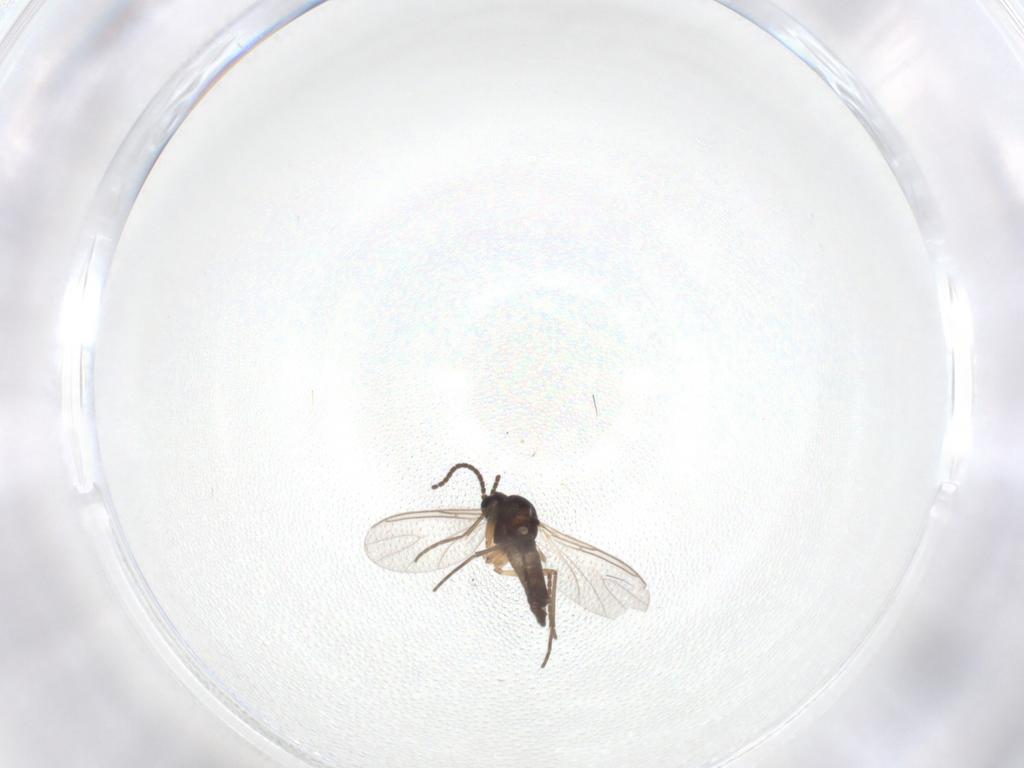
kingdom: Animalia
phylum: Arthropoda
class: Insecta
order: Diptera
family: Sciaridae
